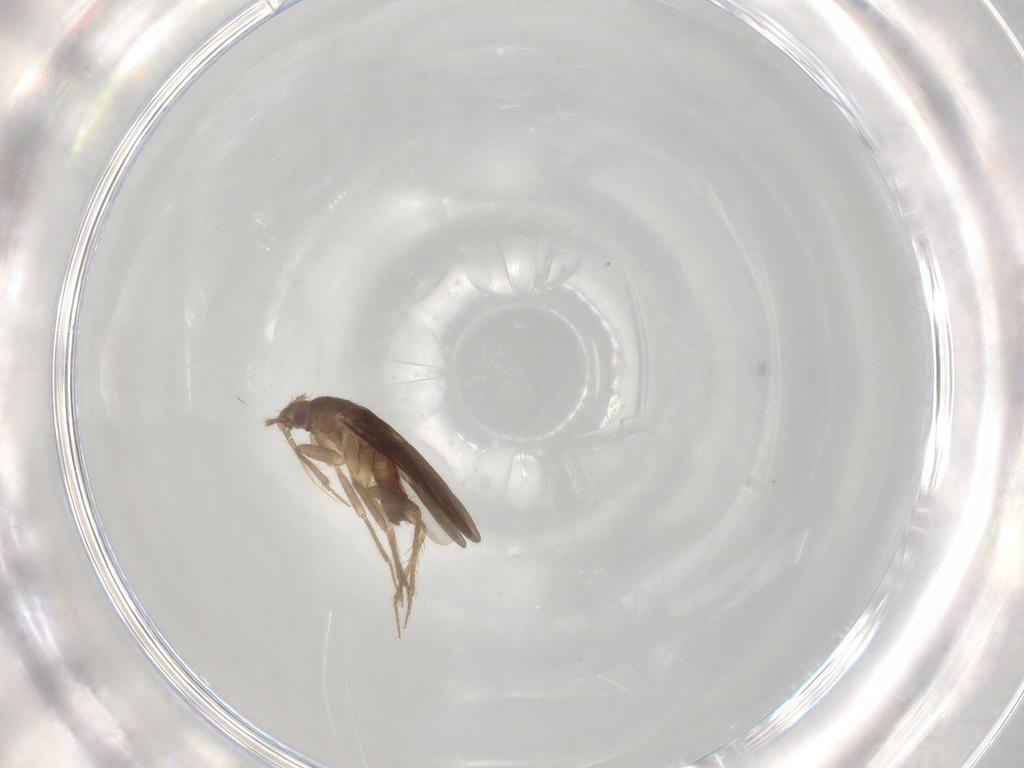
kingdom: Animalia
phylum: Arthropoda
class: Insecta
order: Hemiptera
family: Ceratocombidae
